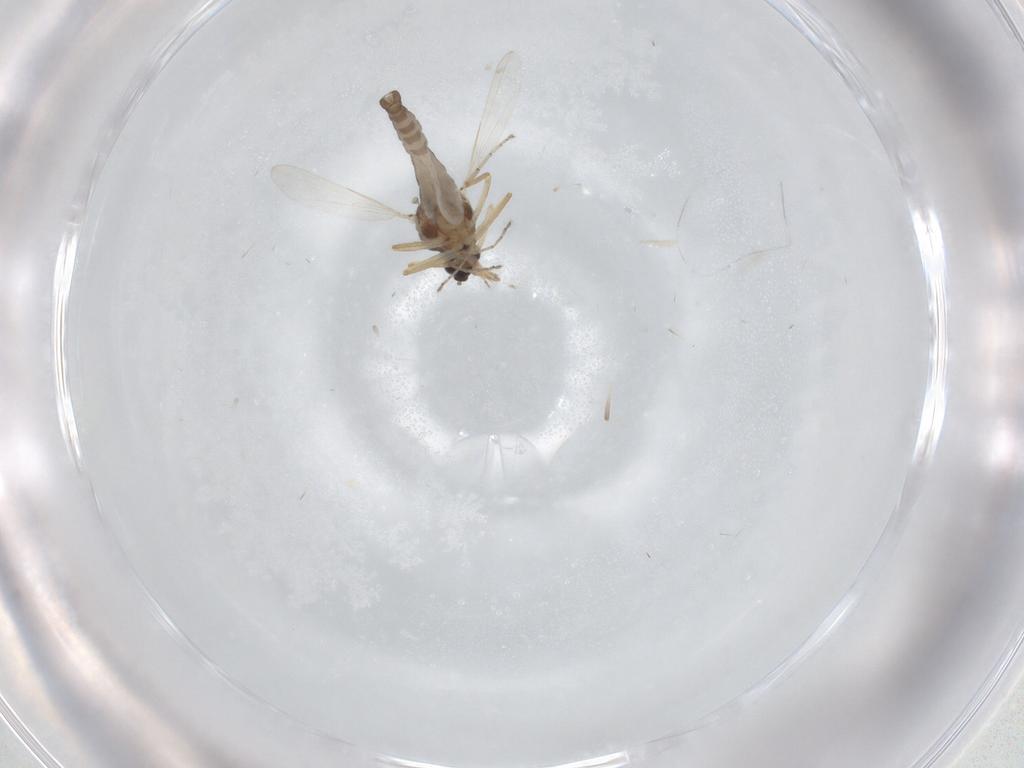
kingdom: Animalia
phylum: Arthropoda
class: Insecta
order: Diptera
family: Ceratopogonidae
